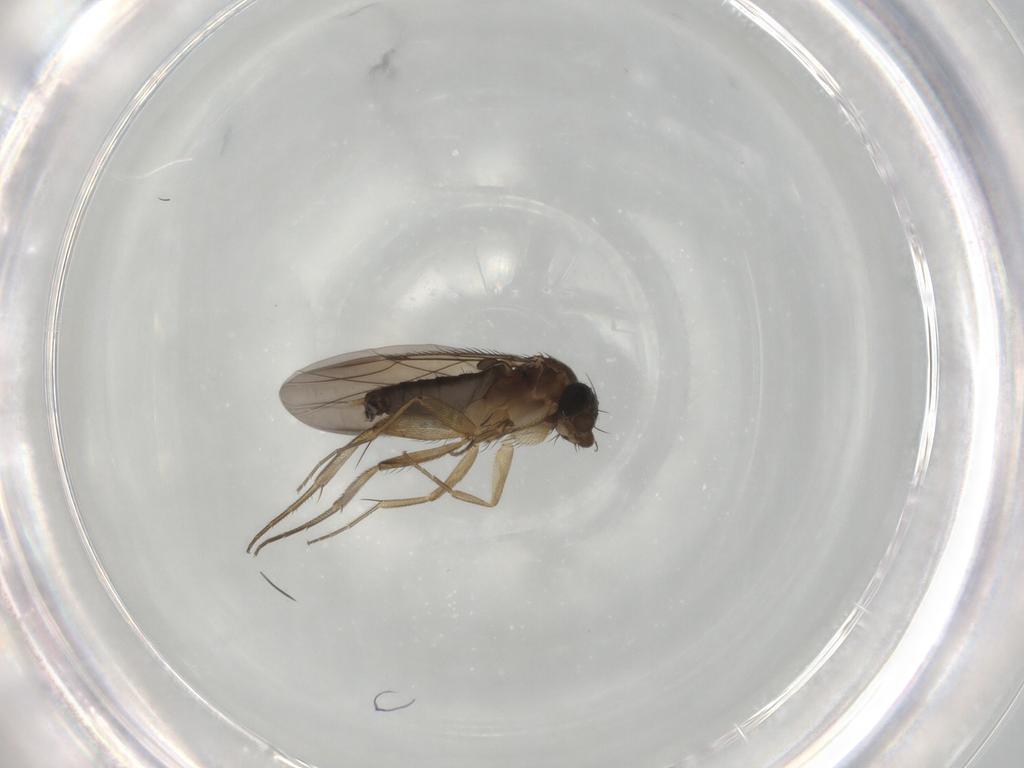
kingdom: Animalia
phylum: Arthropoda
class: Insecta
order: Diptera
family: Phoridae
